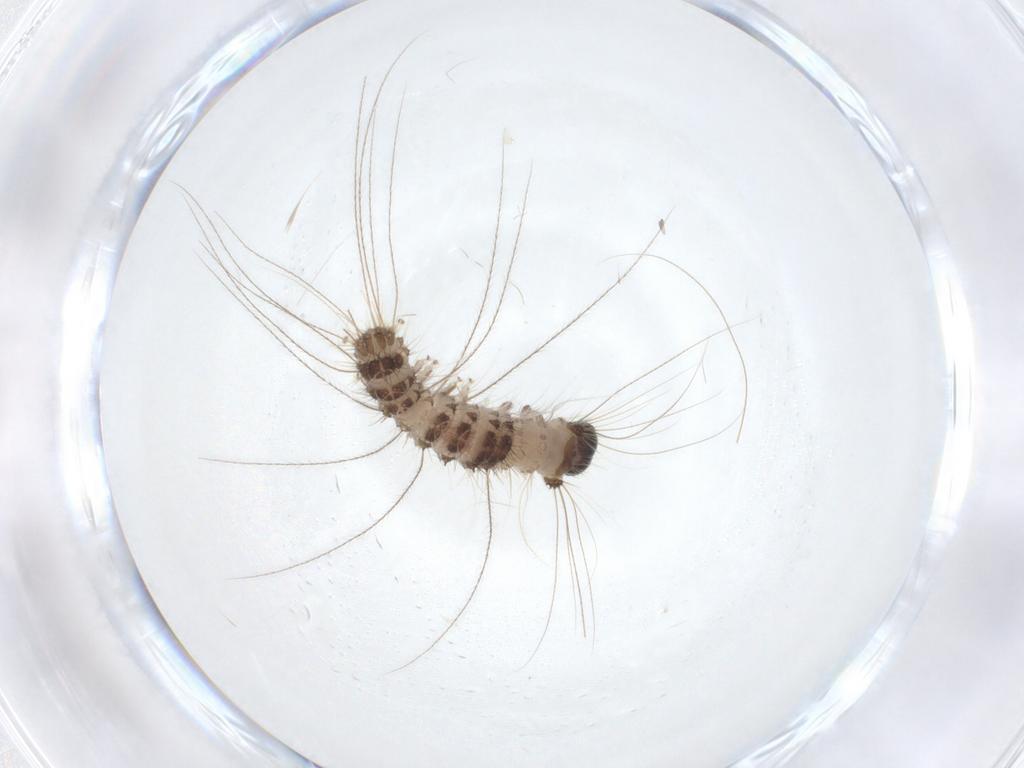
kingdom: Animalia
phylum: Arthropoda
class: Insecta
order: Lepidoptera
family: Erebidae
